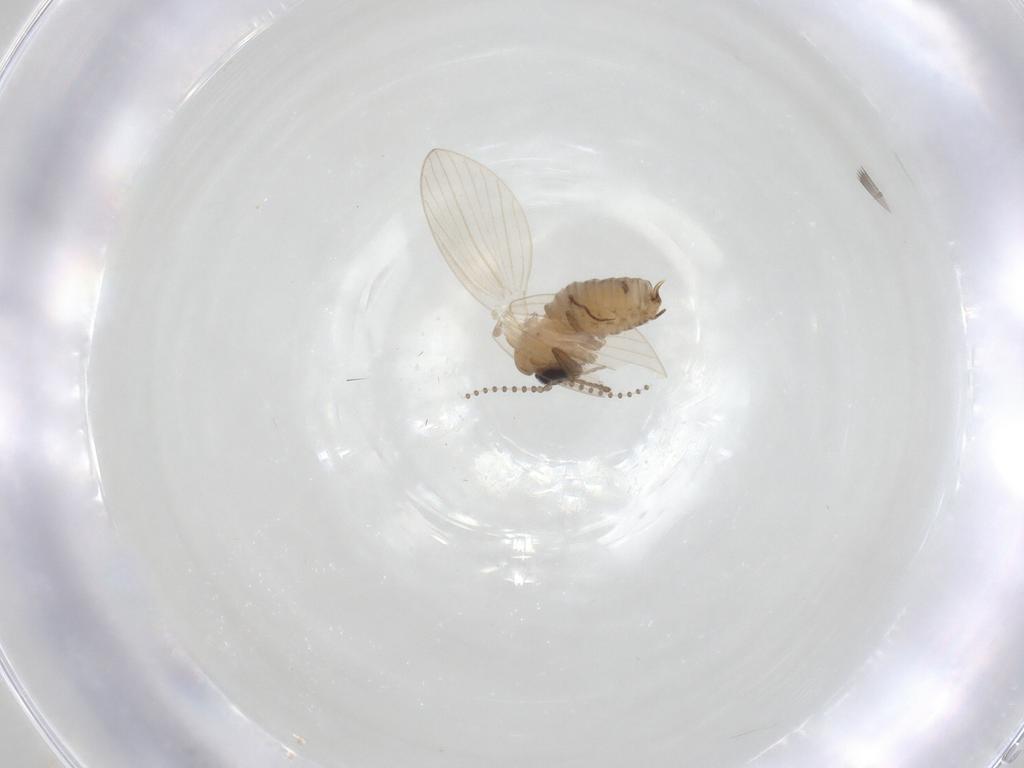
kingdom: Animalia
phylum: Arthropoda
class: Insecta
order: Diptera
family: Psychodidae
